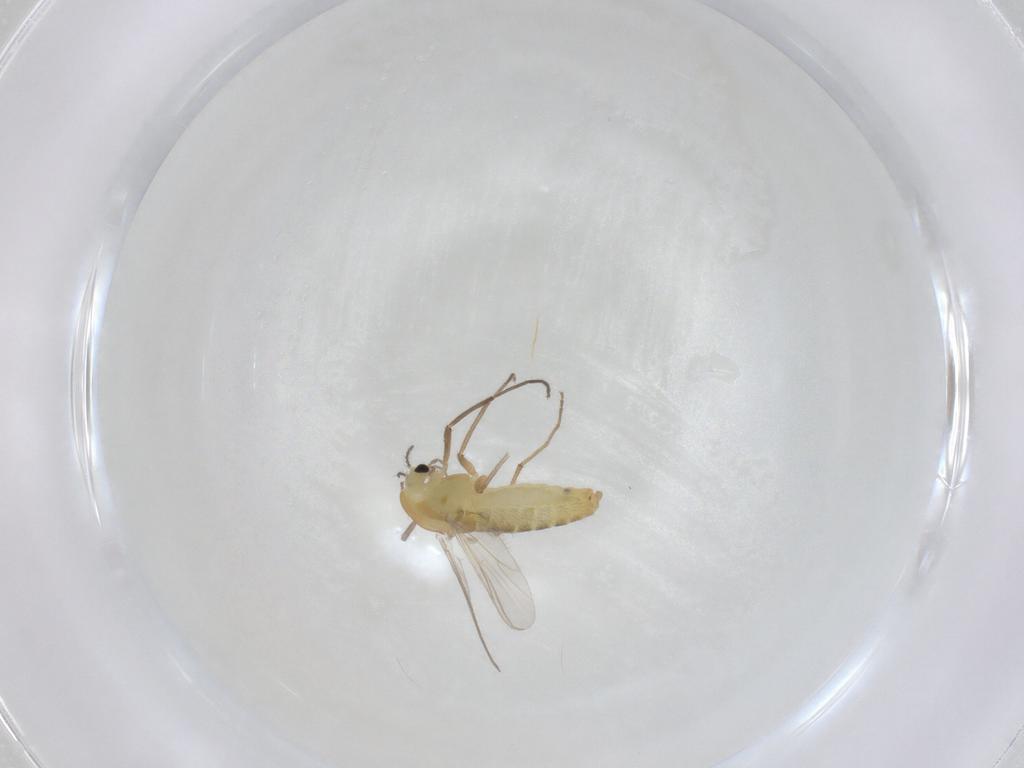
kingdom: Animalia
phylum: Arthropoda
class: Insecta
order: Diptera
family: Chironomidae
